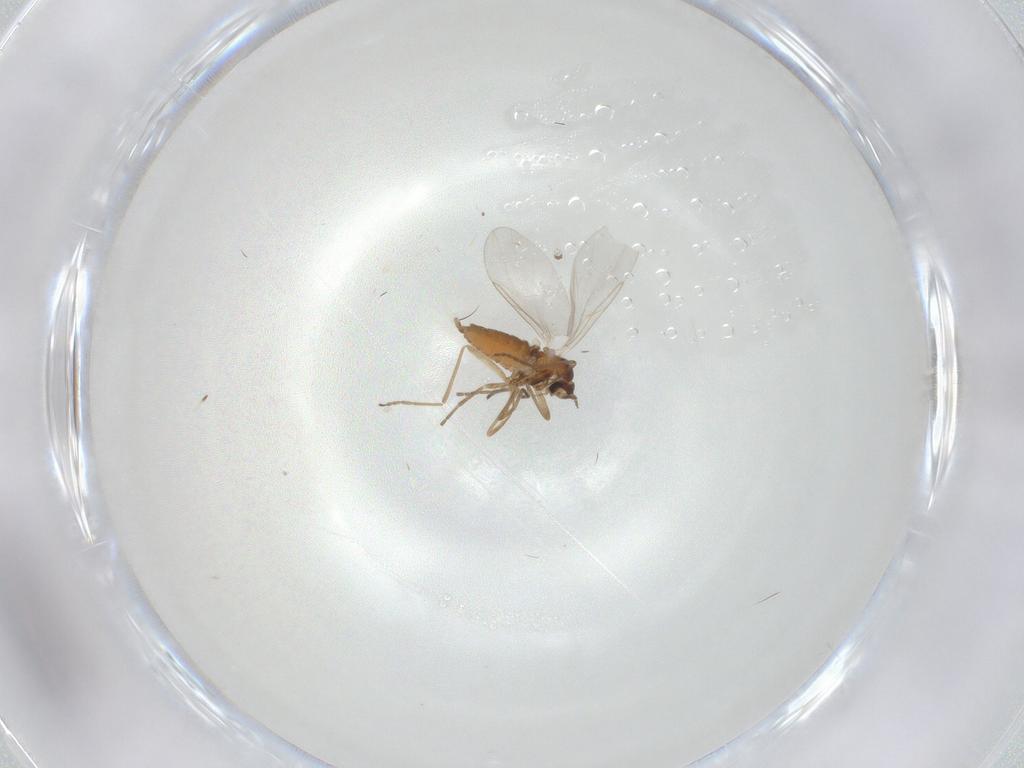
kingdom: Animalia
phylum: Arthropoda
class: Insecta
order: Diptera
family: Cecidomyiidae
